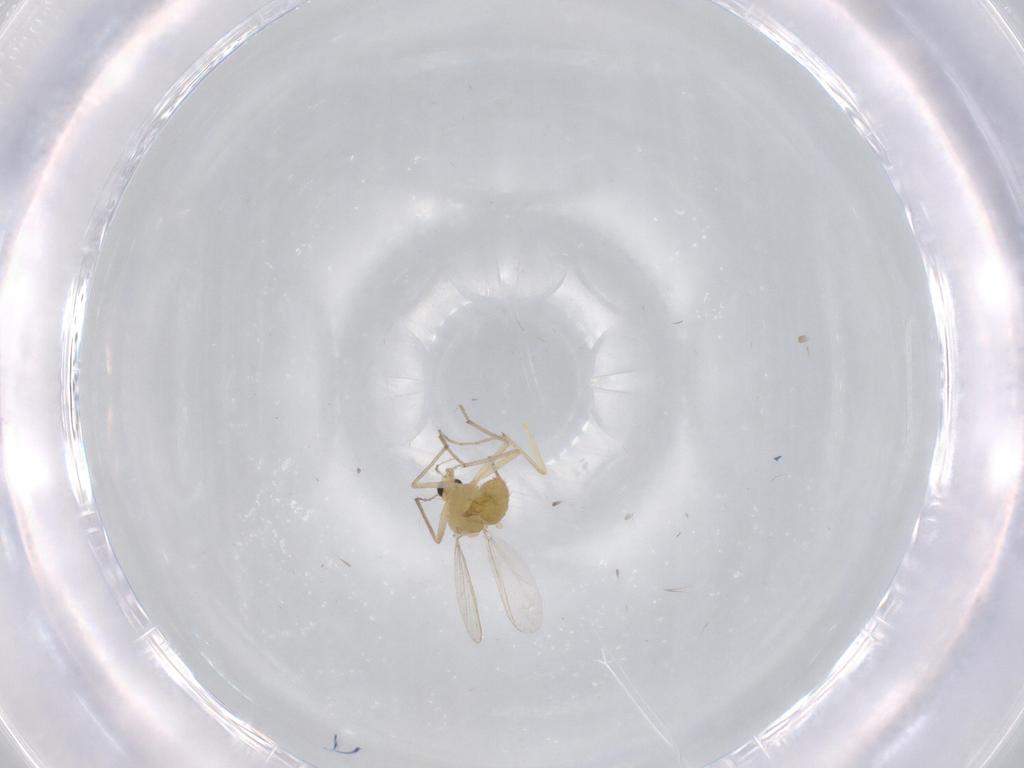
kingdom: Animalia
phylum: Arthropoda
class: Insecta
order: Diptera
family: Chironomidae
